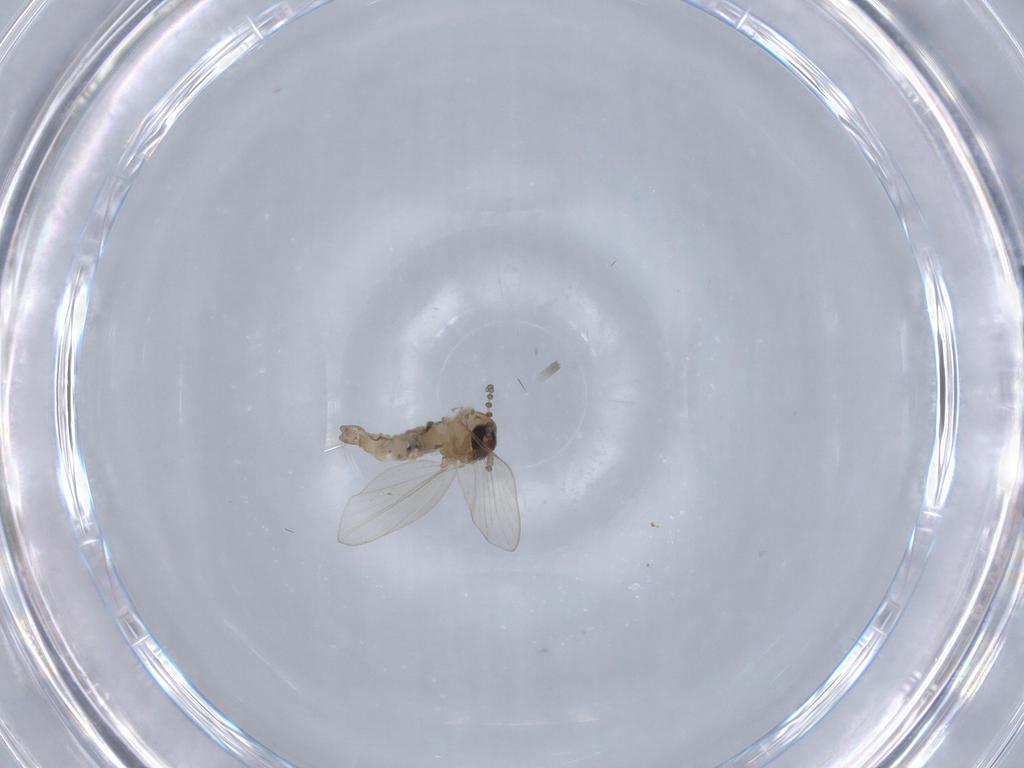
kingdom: Animalia
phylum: Arthropoda
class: Insecta
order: Diptera
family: Psychodidae
